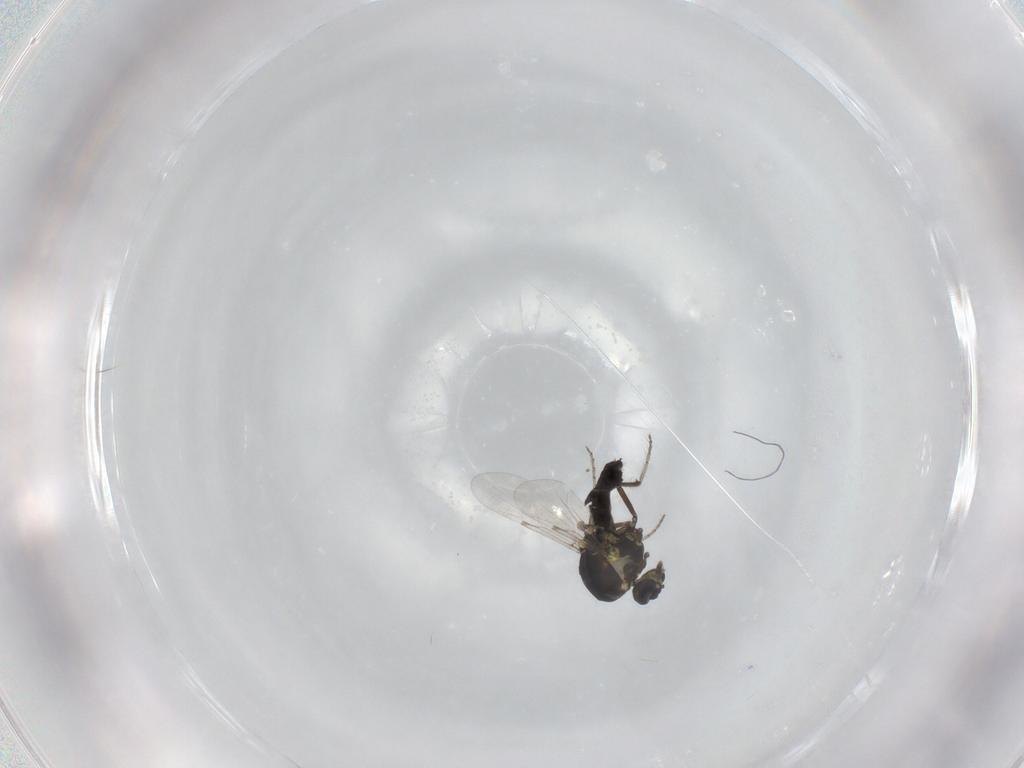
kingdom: Animalia
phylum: Arthropoda
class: Insecta
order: Diptera
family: Ceratopogonidae
